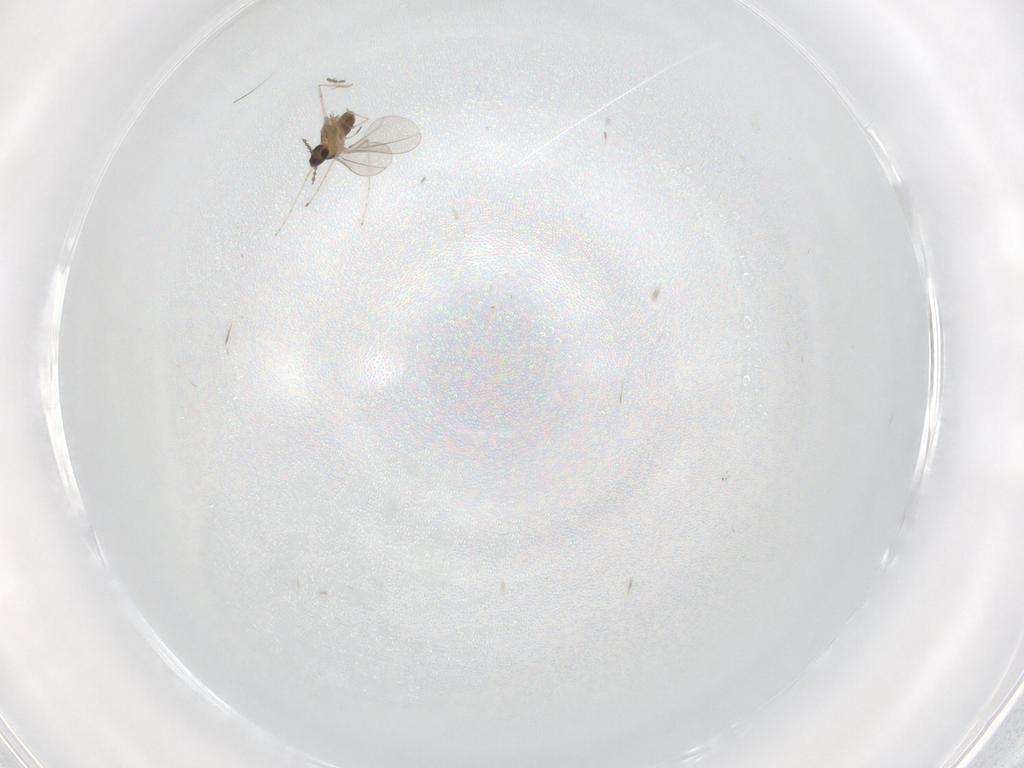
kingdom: Animalia
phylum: Arthropoda
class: Insecta
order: Diptera
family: Cecidomyiidae
